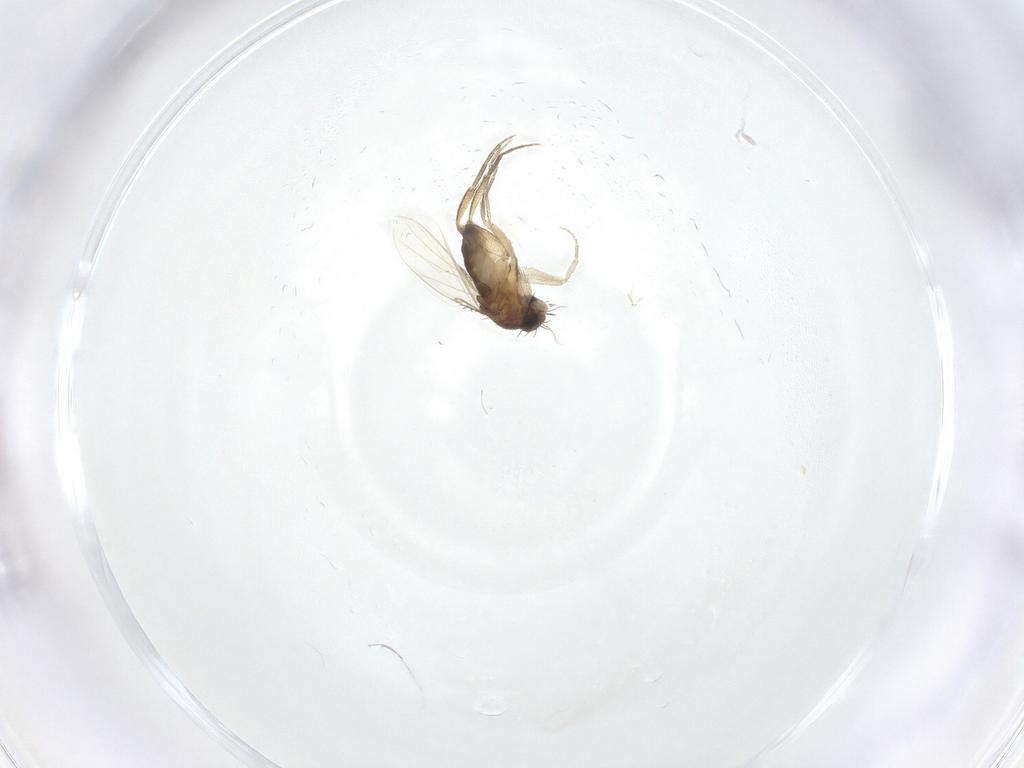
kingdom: Animalia
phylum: Arthropoda
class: Insecta
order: Diptera
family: Phoridae
